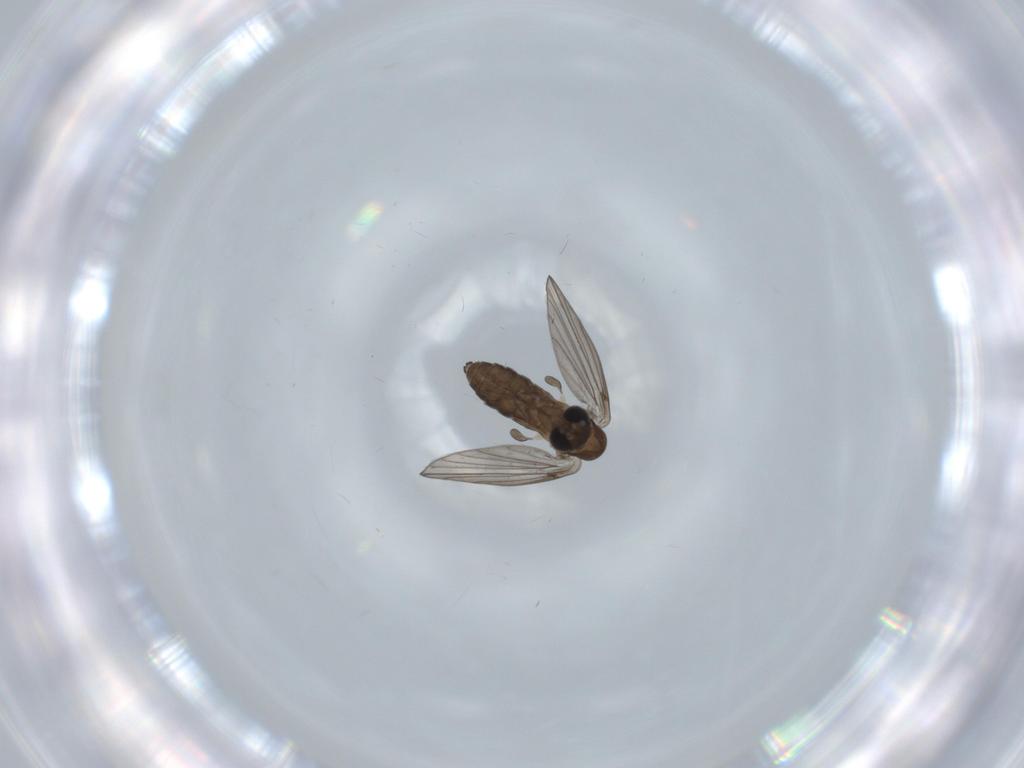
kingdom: Animalia
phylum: Arthropoda
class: Insecta
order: Diptera
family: Psychodidae
